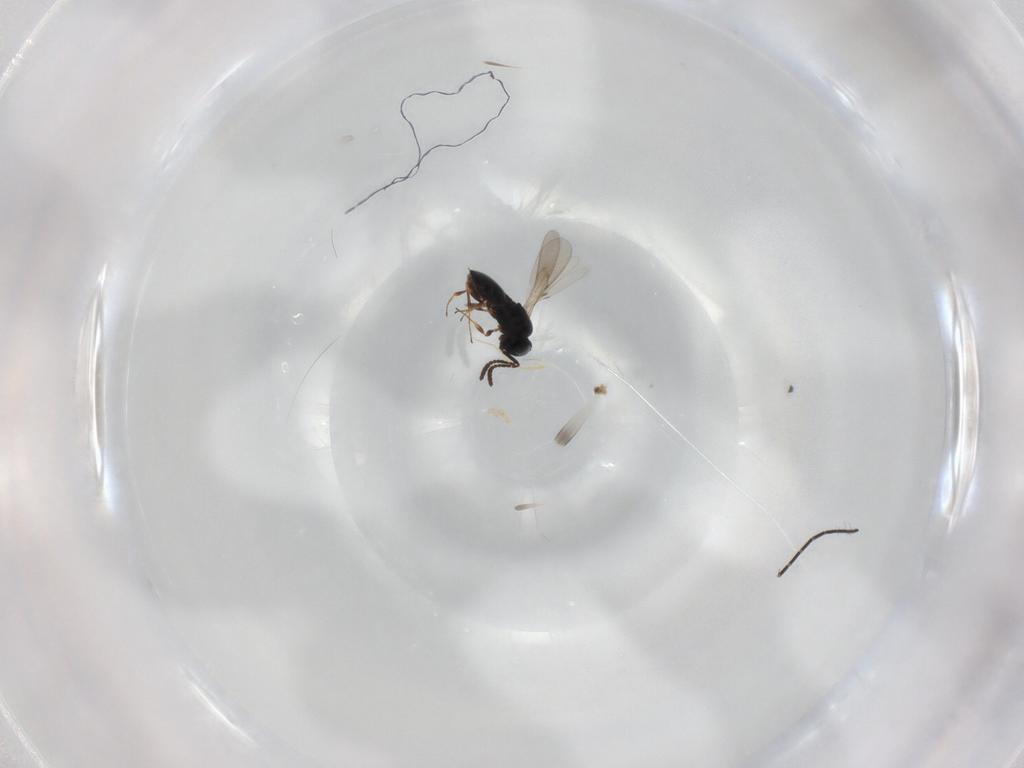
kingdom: Animalia
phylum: Arthropoda
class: Insecta
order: Hymenoptera
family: Scelionidae
